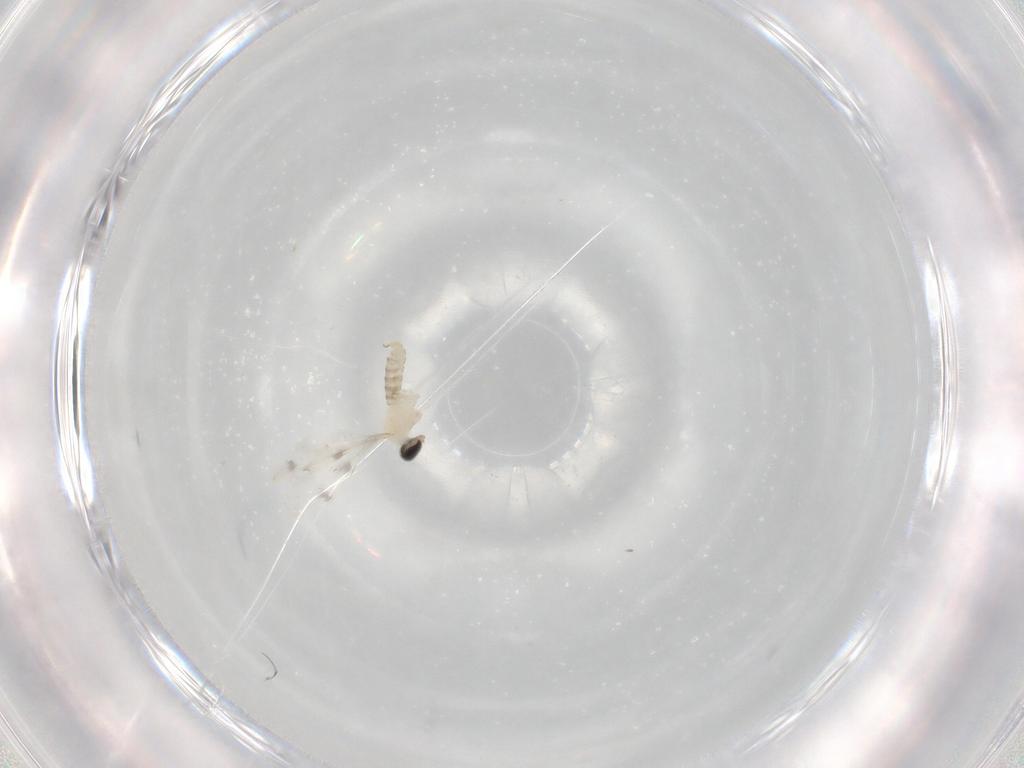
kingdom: Animalia
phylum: Arthropoda
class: Insecta
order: Diptera
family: Cecidomyiidae
